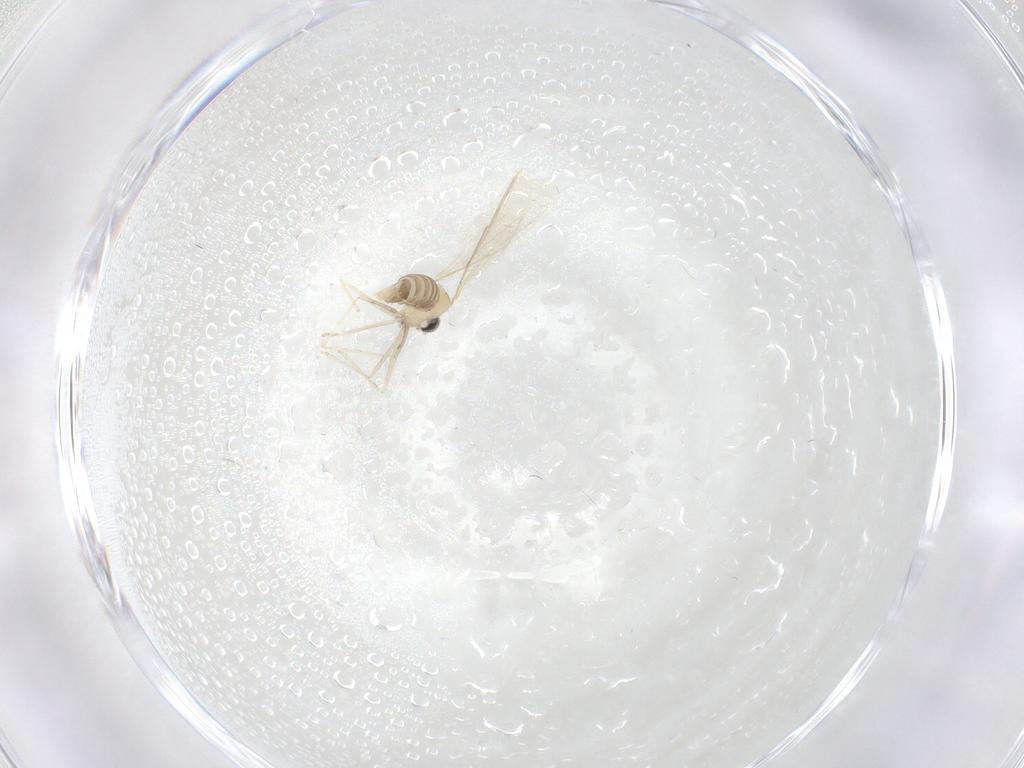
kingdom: Animalia
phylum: Arthropoda
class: Insecta
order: Diptera
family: Cecidomyiidae
